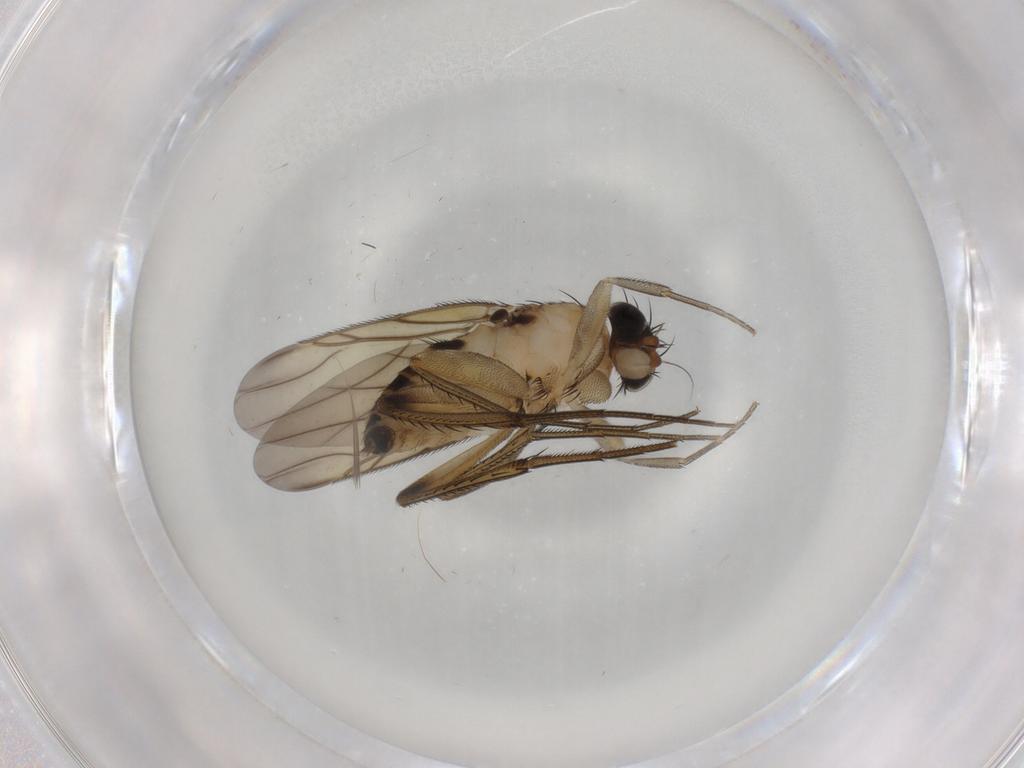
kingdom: Animalia
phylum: Arthropoda
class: Insecta
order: Diptera
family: Drosophilidae
